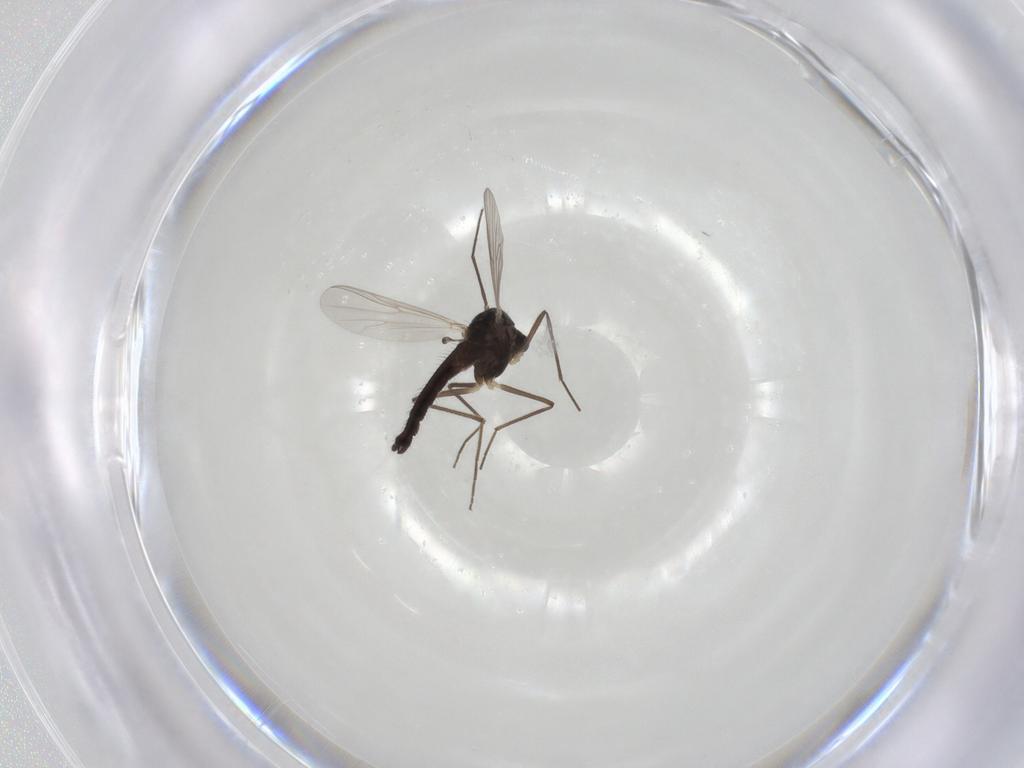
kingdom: Animalia
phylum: Arthropoda
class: Insecta
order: Diptera
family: Chironomidae
